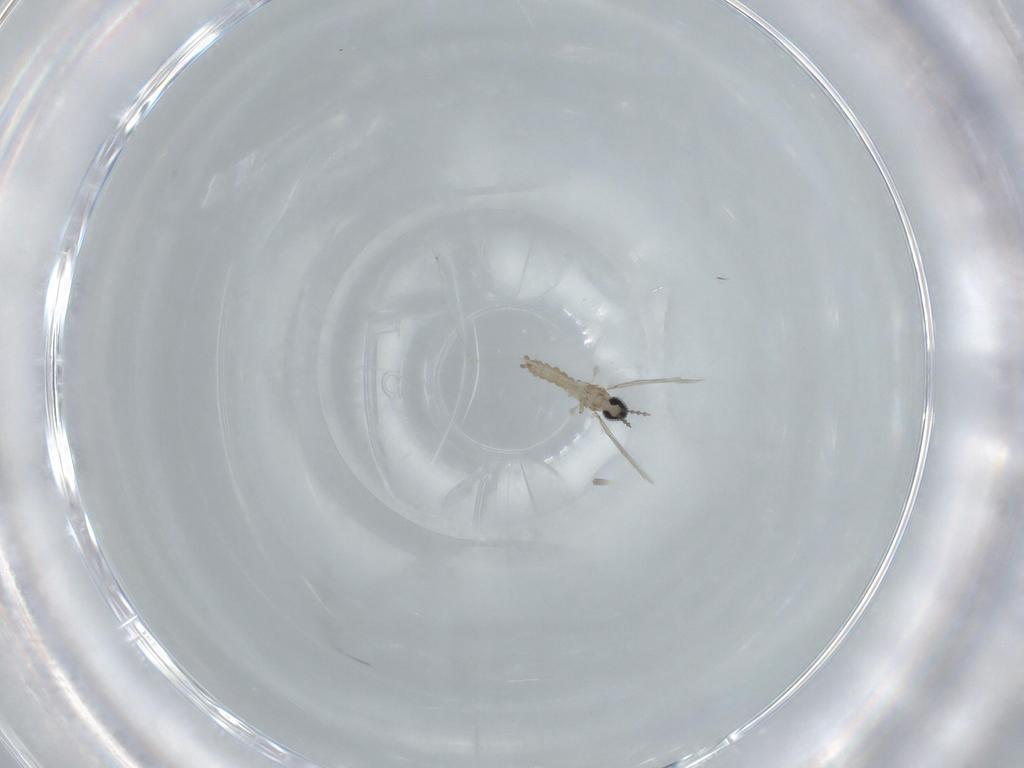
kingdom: Animalia
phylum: Arthropoda
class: Insecta
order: Diptera
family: Cecidomyiidae
